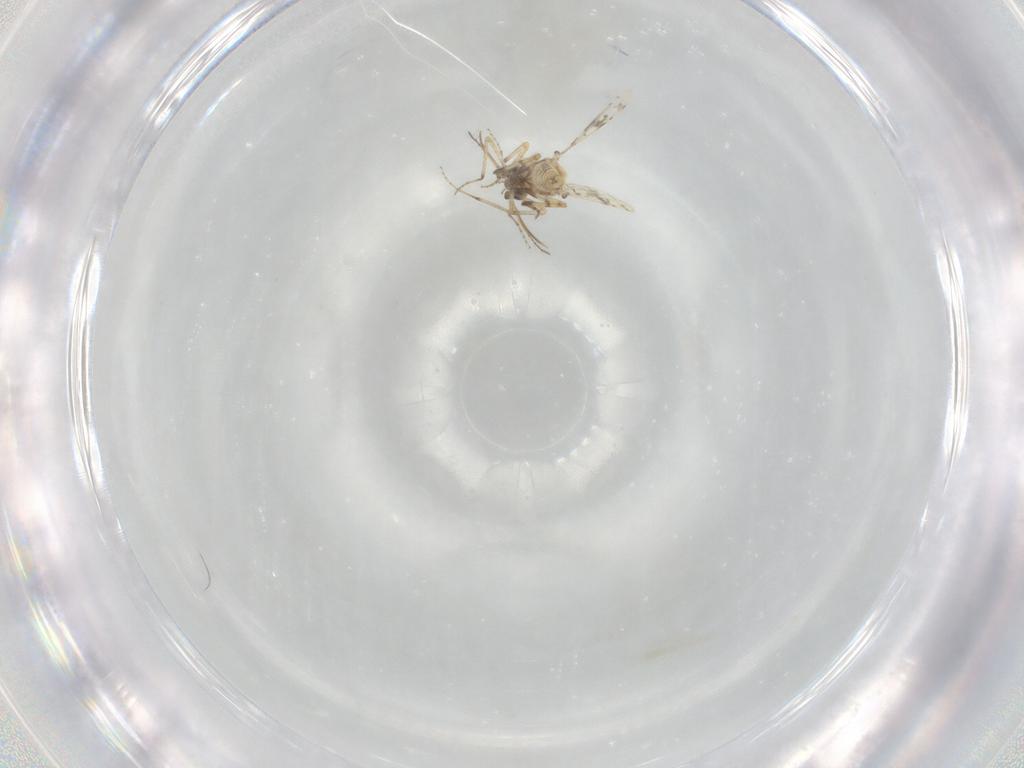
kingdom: Animalia
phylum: Arthropoda
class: Insecta
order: Diptera
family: Ceratopogonidae
